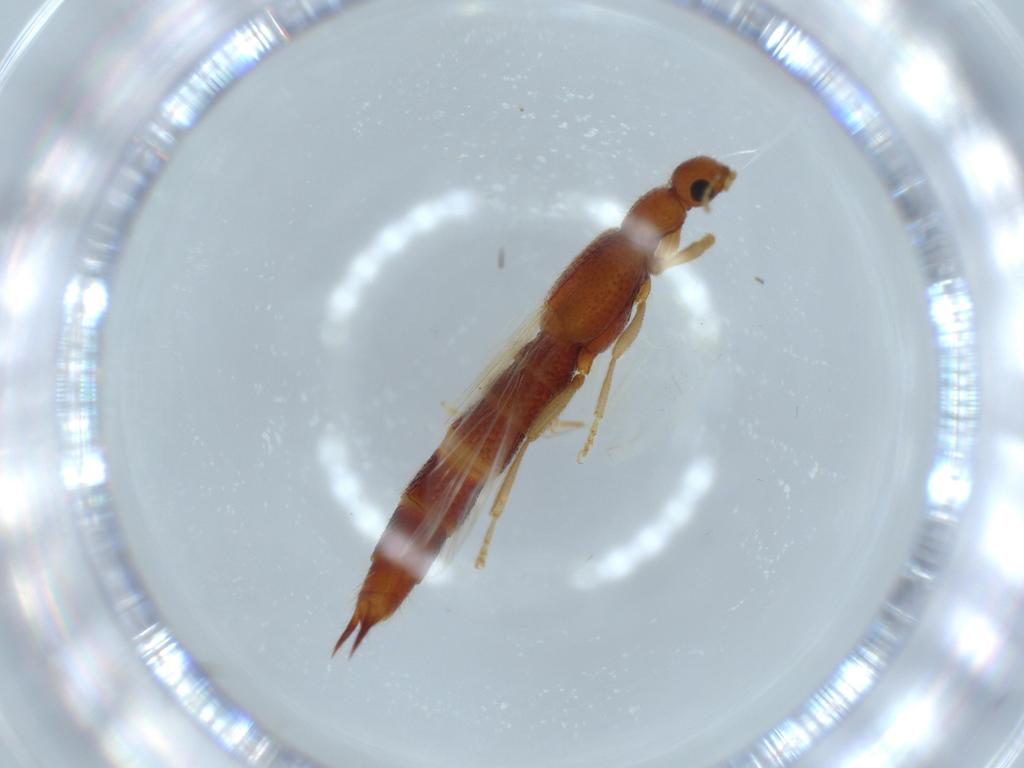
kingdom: Animalia
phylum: Arthropoda
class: Insecta
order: Coleoptera
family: Staphylinidae
